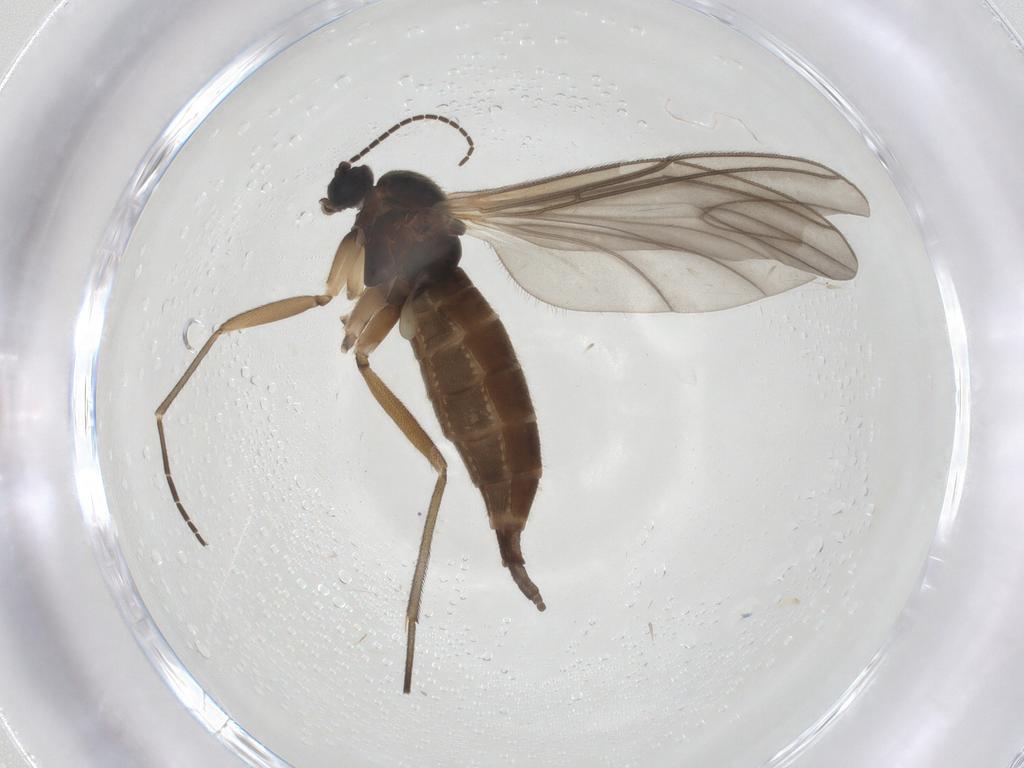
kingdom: Animalia
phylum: Arthropoda
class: Insecta
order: Diptera
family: Sciaridae
